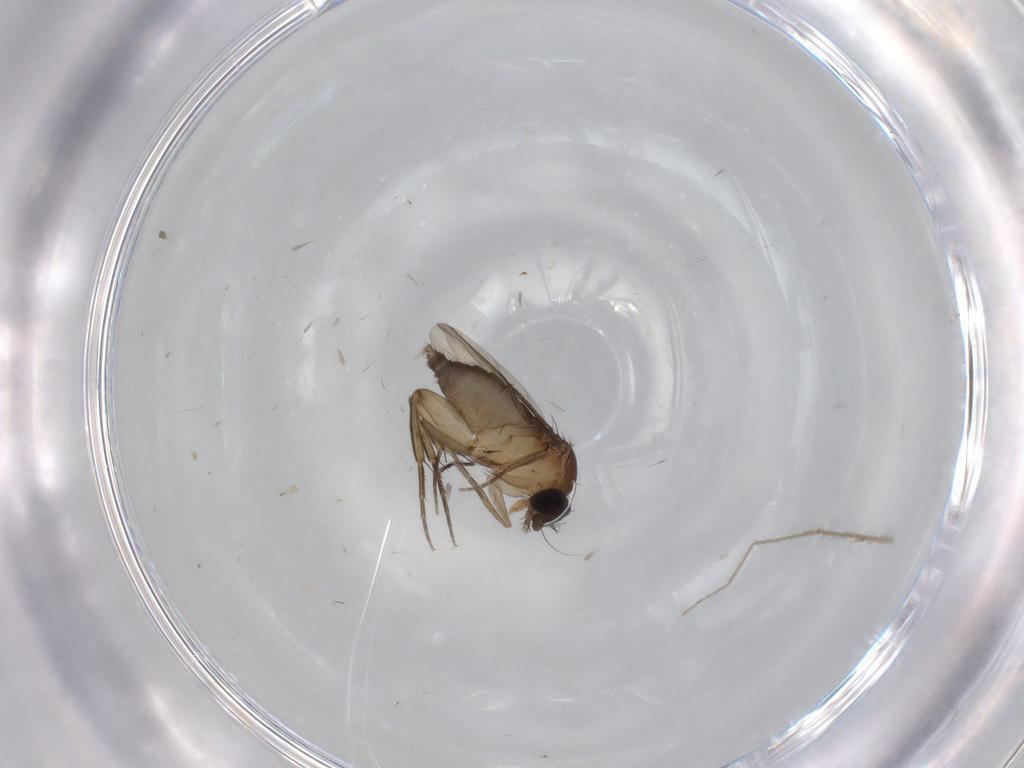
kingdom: Animalia
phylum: Arthropoda
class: Insecta
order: Diptera
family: Phoridae
